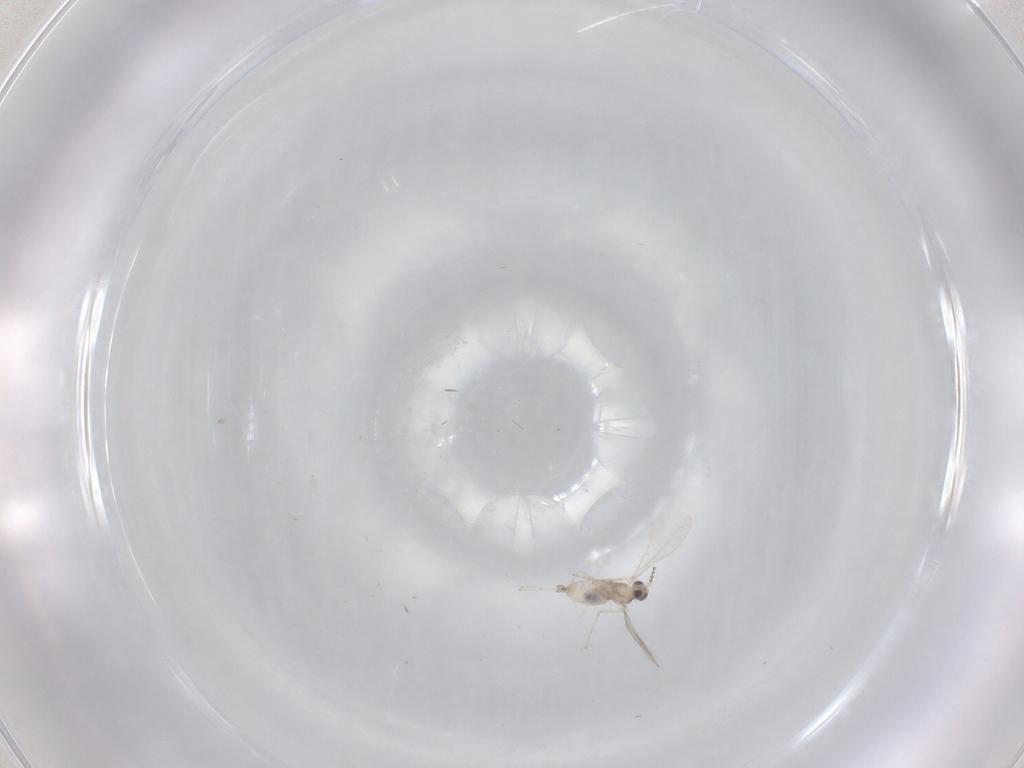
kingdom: Animalia
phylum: Arthropoda
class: Insecta
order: Diptera
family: Cecidomyiidae
